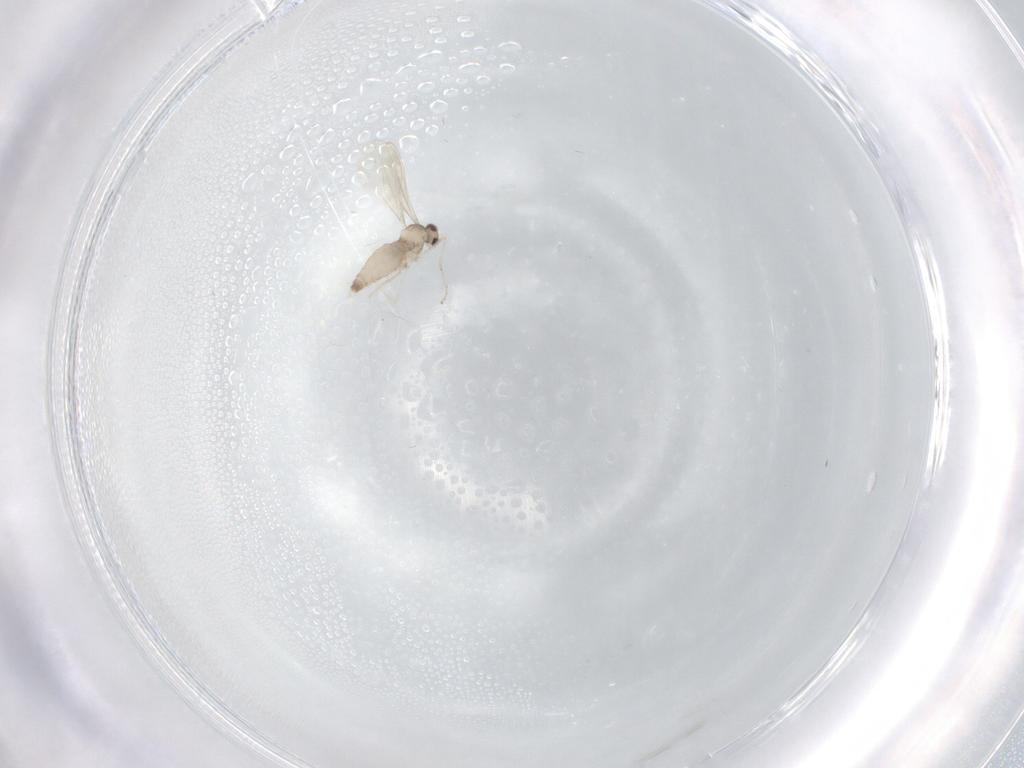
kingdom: Animalia
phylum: Arthropoda
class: Insecta
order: Diptera
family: Cecidomyiidae
